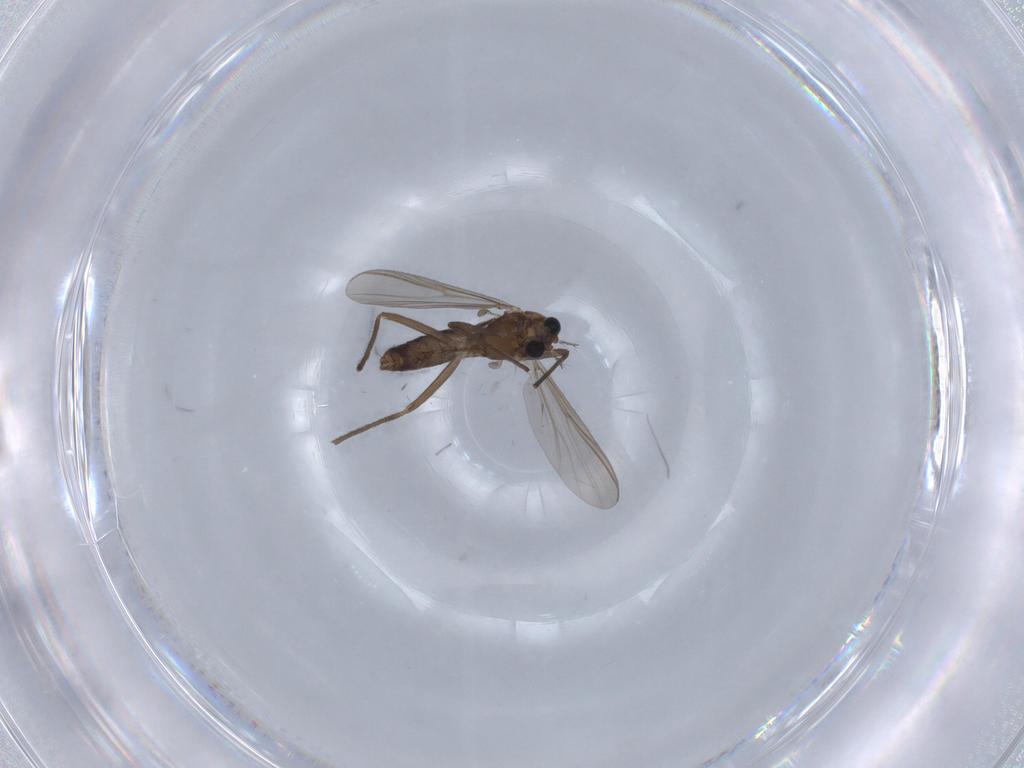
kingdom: Animalia
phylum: Arthropoda
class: Insecta
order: Diptera
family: Chironomidae
